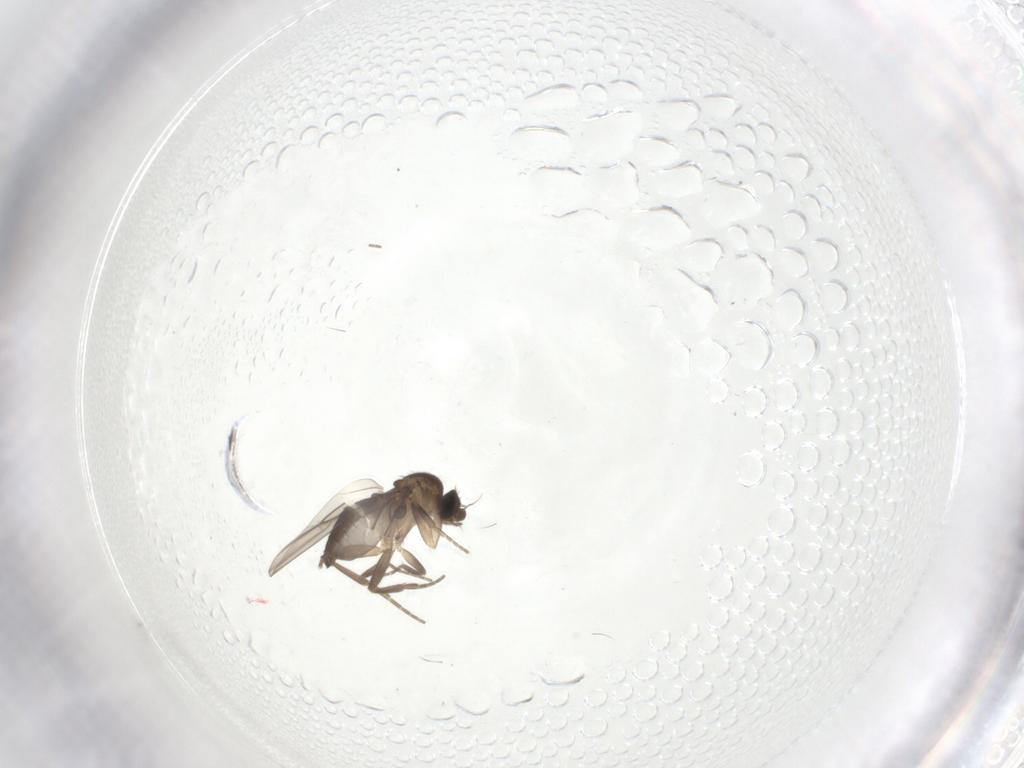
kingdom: Animalia
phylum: Arthropoda
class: Insecta
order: Diptera
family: Phoridae
